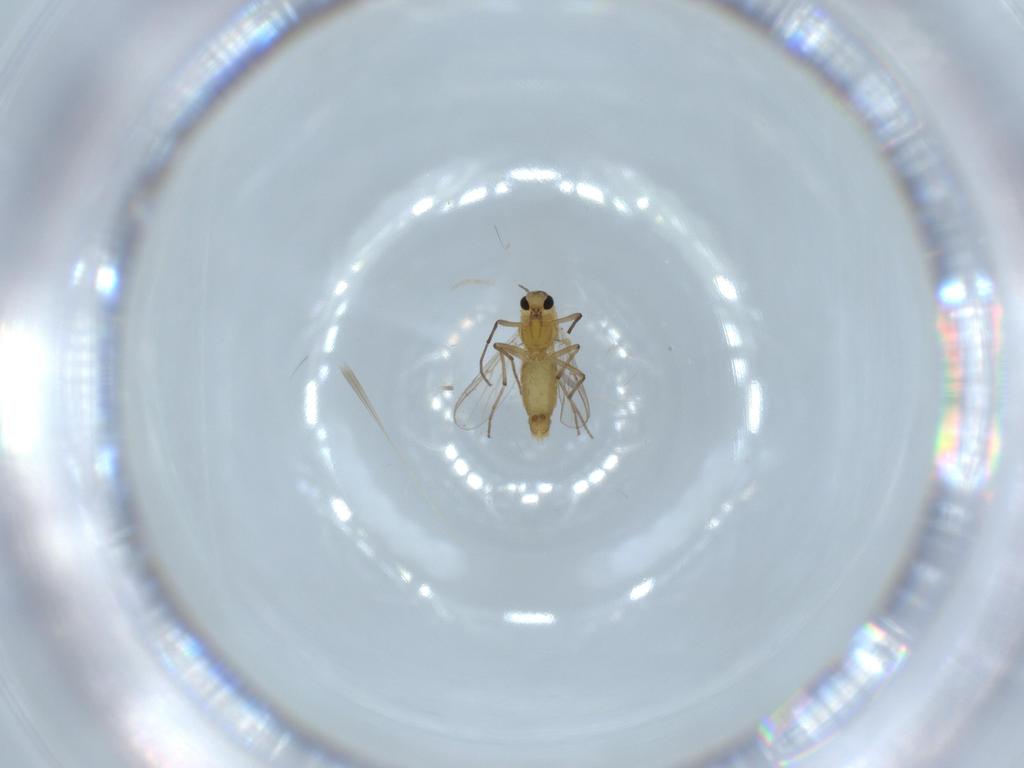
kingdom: Animalia
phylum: Arthropoda
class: Insecta
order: Diptera
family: Chironomidae
